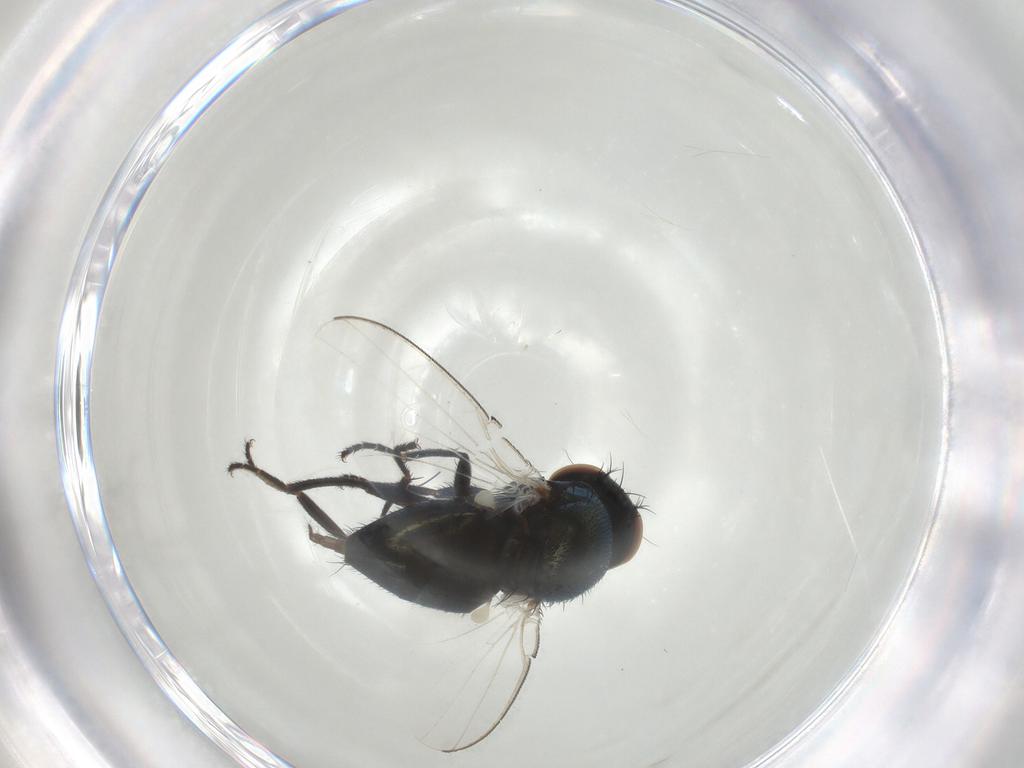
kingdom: Animalia
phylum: Arthropoda
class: Insecta
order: Diptera
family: Milichiidae
